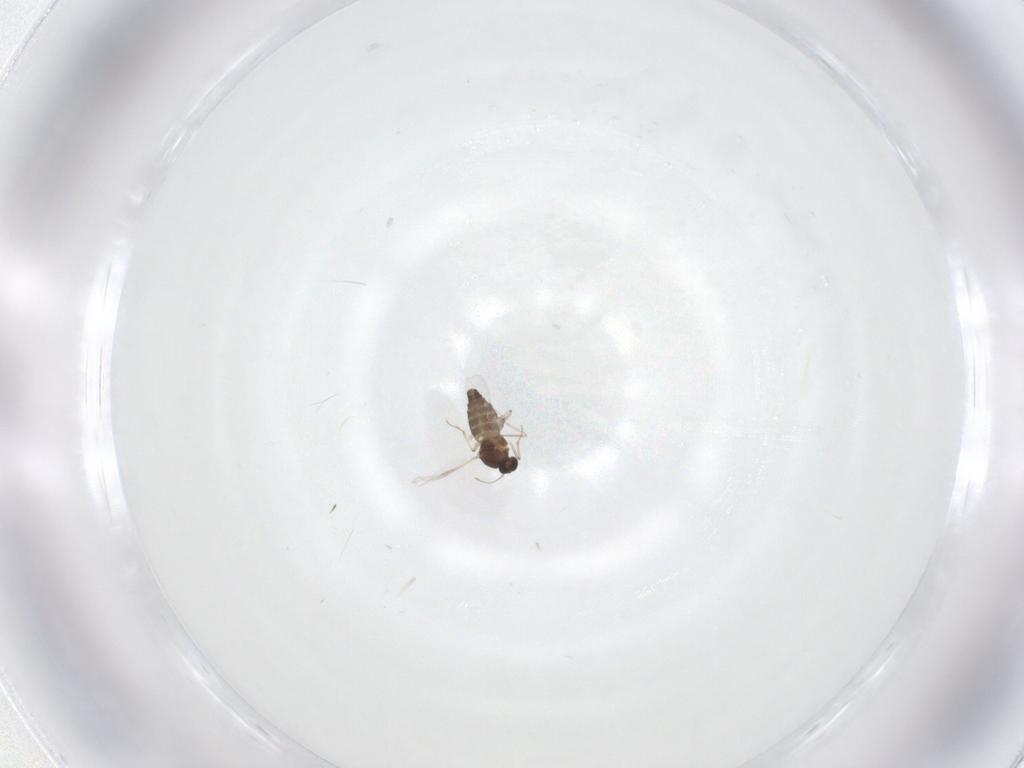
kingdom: Animalia
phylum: Arthropoda
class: Insecta
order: Diptera
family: Ceratopogonidae
